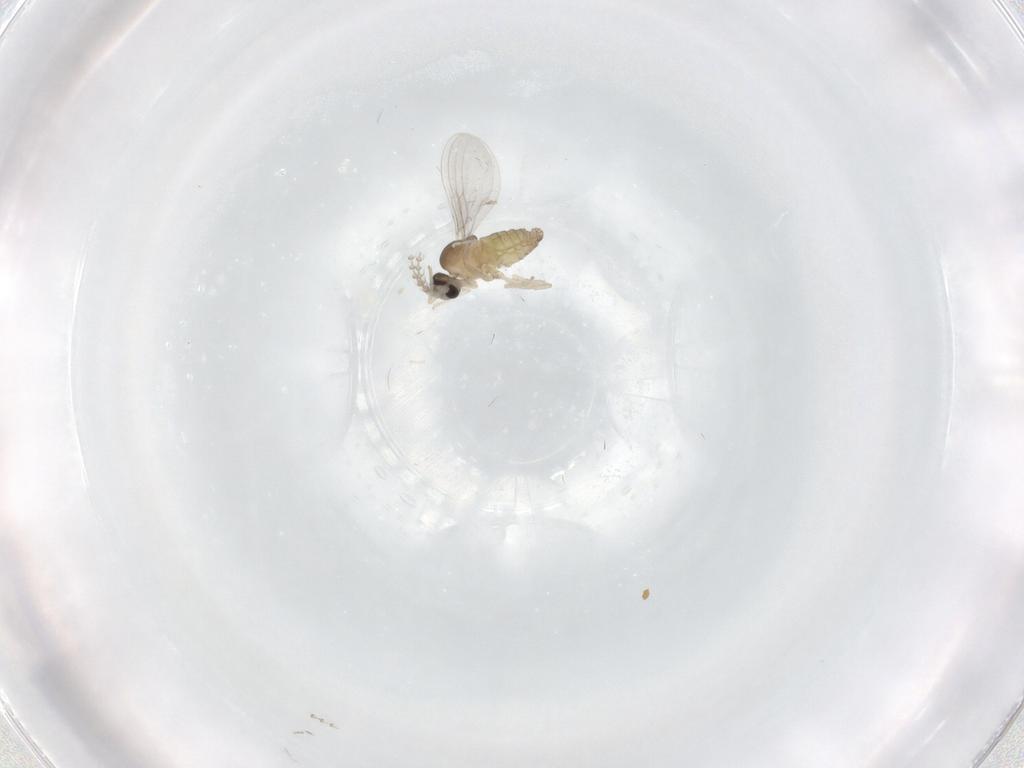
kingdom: Animalia
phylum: Arthropoda
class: Insecta
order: Diptera
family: Cecidomyiidae
